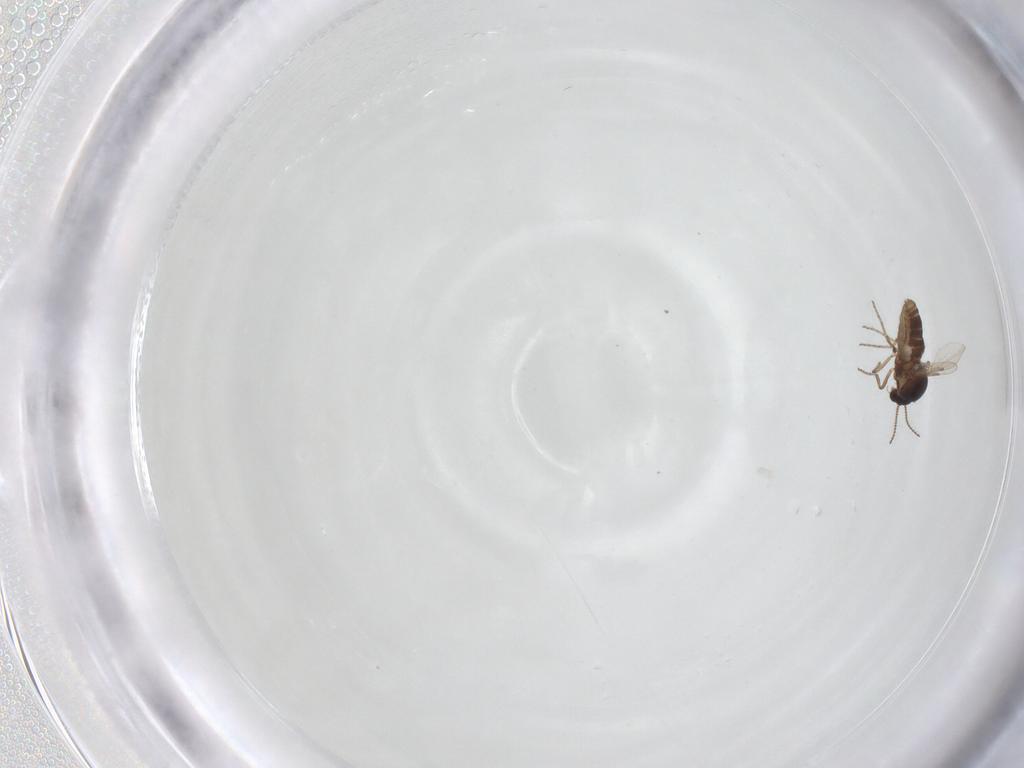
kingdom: Animalia
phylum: Arthropoda
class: Insecta
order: Diptera
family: Ceratopogonidae
